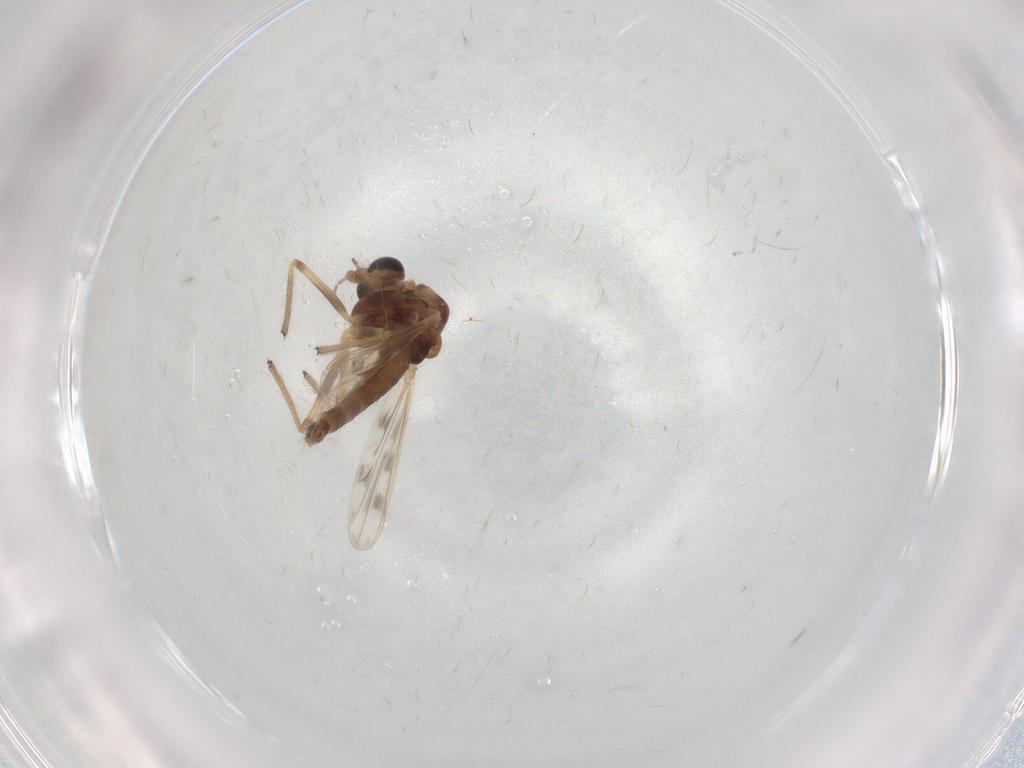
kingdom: Animalia
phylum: Arthropoda
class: Insecta
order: Diptera
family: Chironomidae
